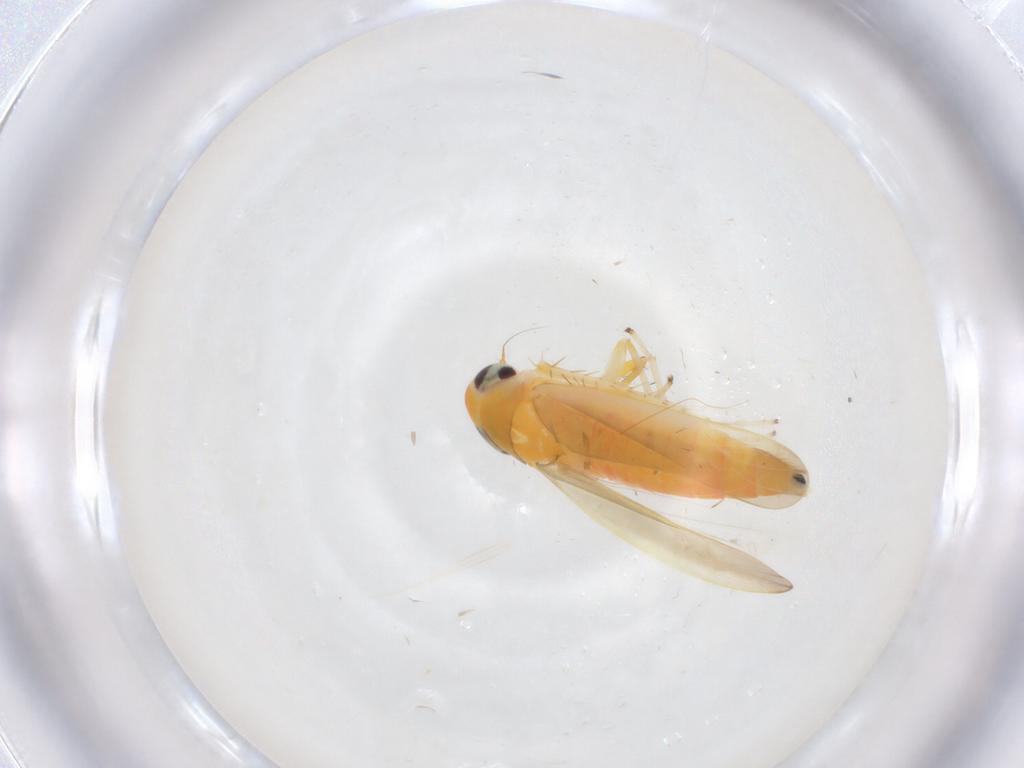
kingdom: Animalia
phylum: Arthropoda
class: Insecta
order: Hemiptera
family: Cicadellidae
